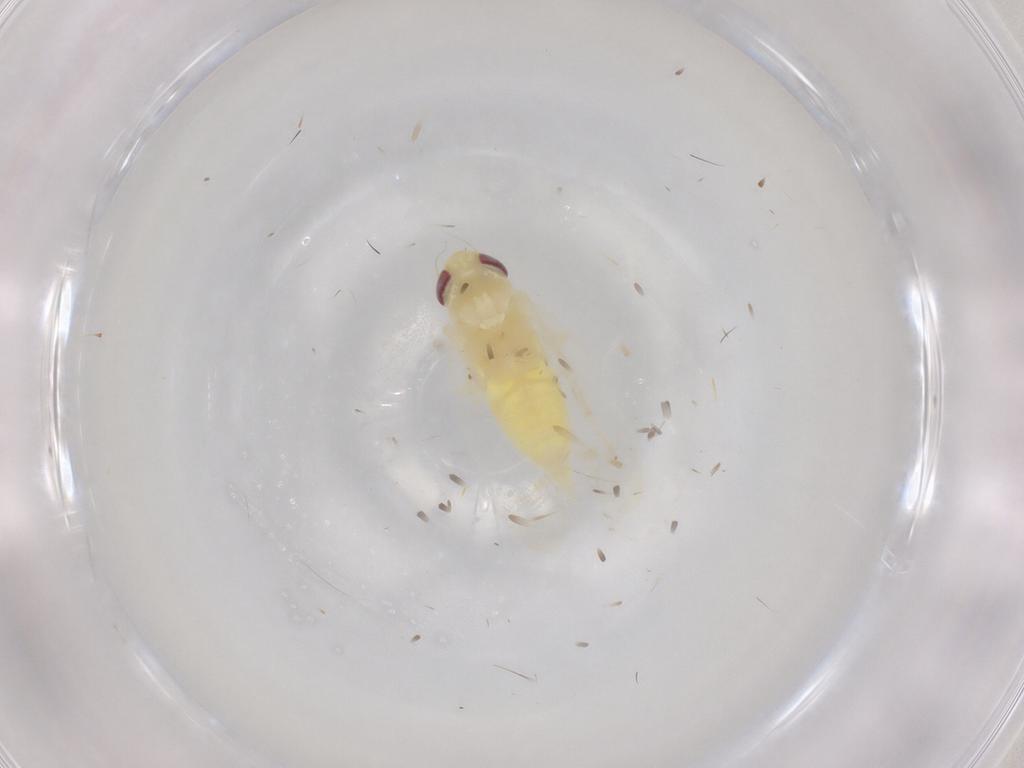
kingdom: Animalia
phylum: Arthropoda
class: Insecta
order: Hemiptera
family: Cicadellidae
